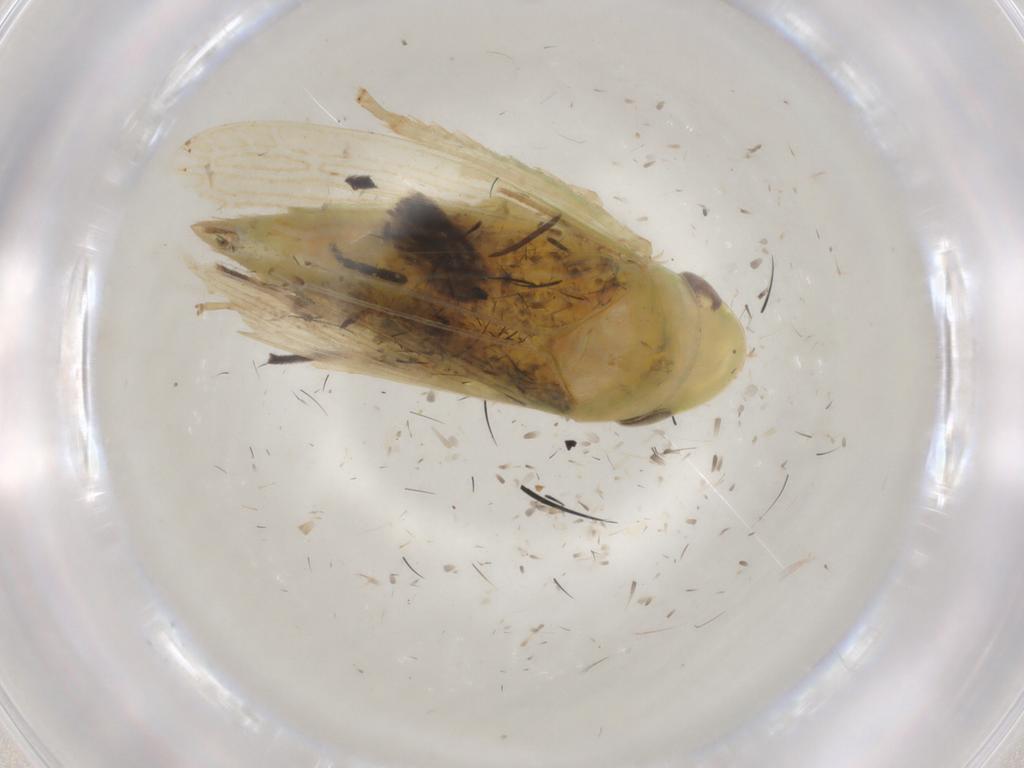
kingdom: Animalia
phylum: Arthropoda
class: Insecta
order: Hemiptera
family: Cicadellidae
